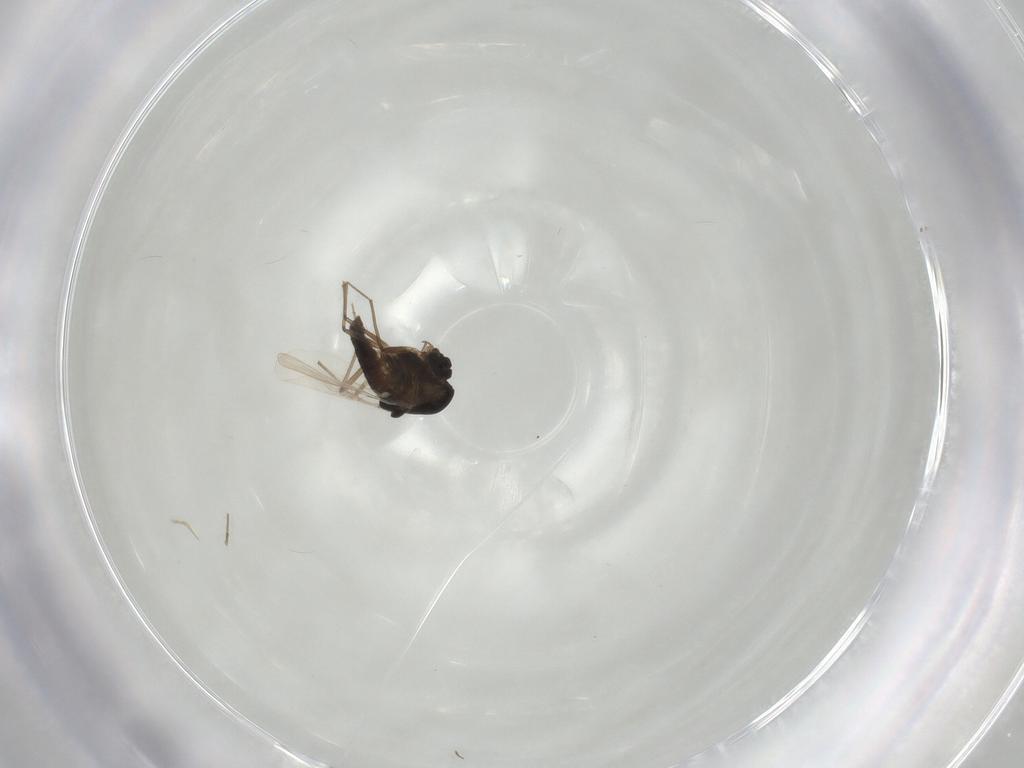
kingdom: Animalia
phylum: Arthropoda
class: Insecta
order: Diptera
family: Chironomidae
